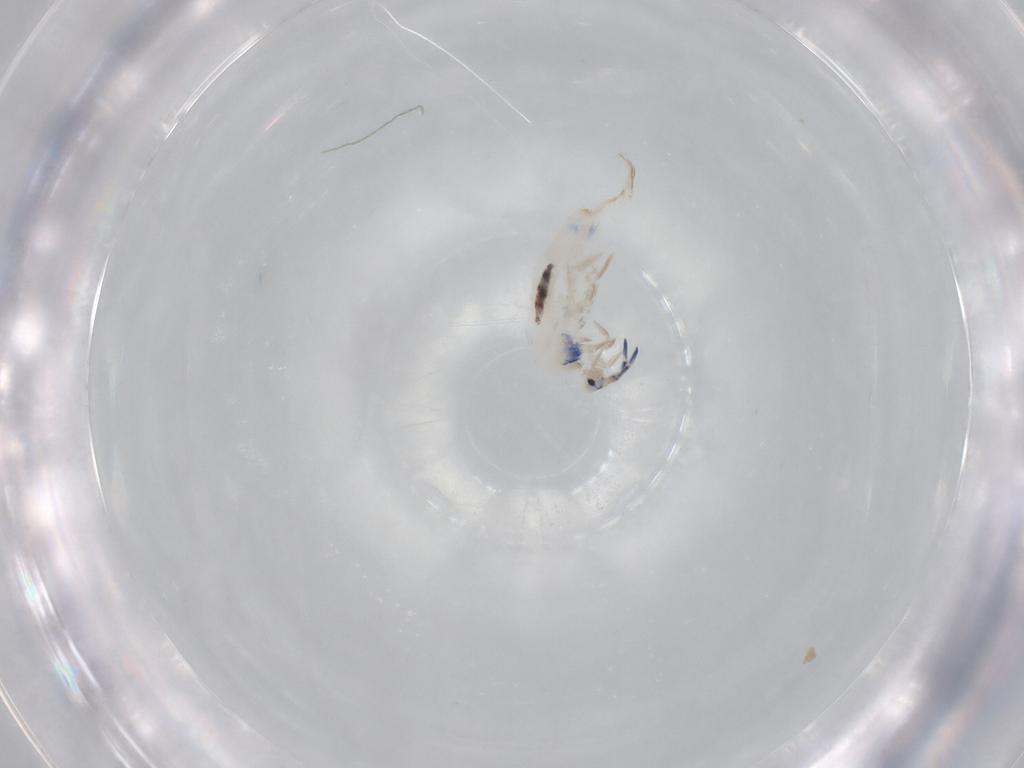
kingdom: Animalia
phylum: Arthropoda
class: Collembola
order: Entomobryomorpha
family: Entomobryidae
